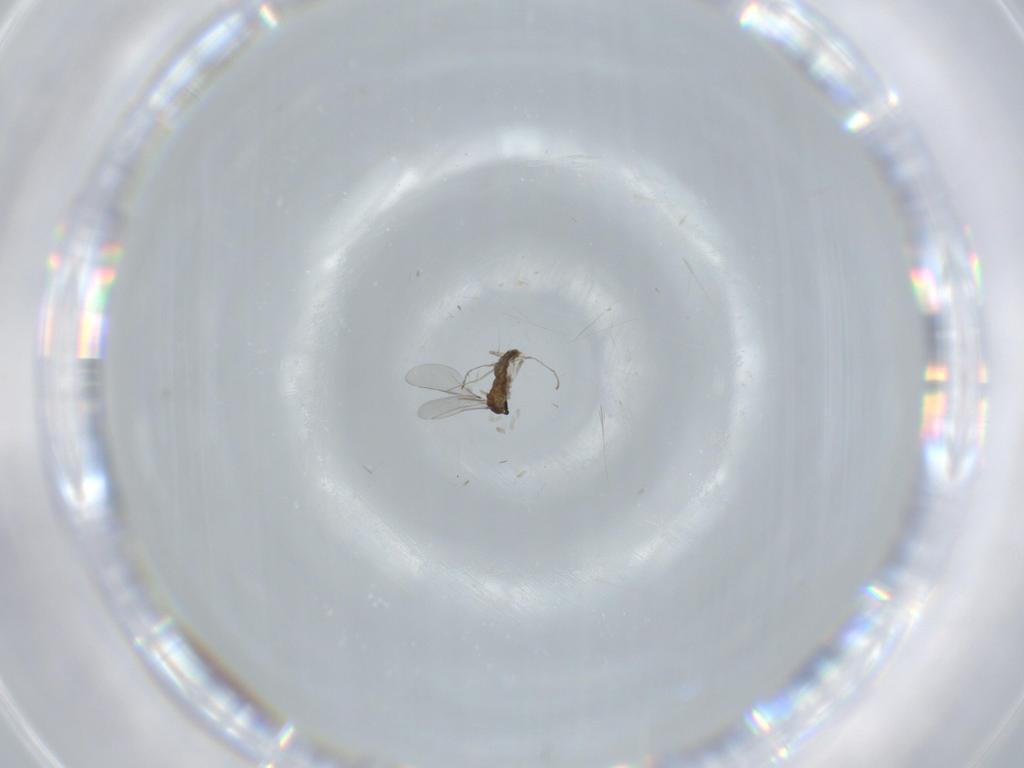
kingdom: Animalia
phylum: Arthropoda
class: Insecta
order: Diptera
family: Cecidomyiidae
